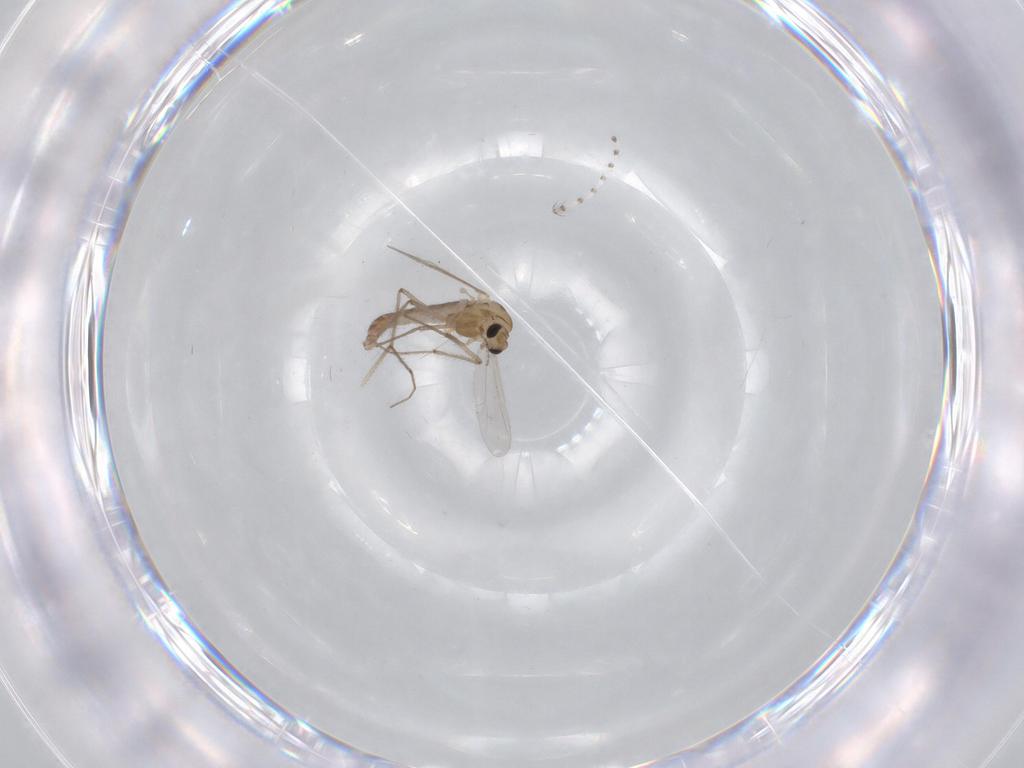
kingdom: Animalia
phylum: Arthropoda
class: Insecta
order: Diptera
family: Chironomidae
